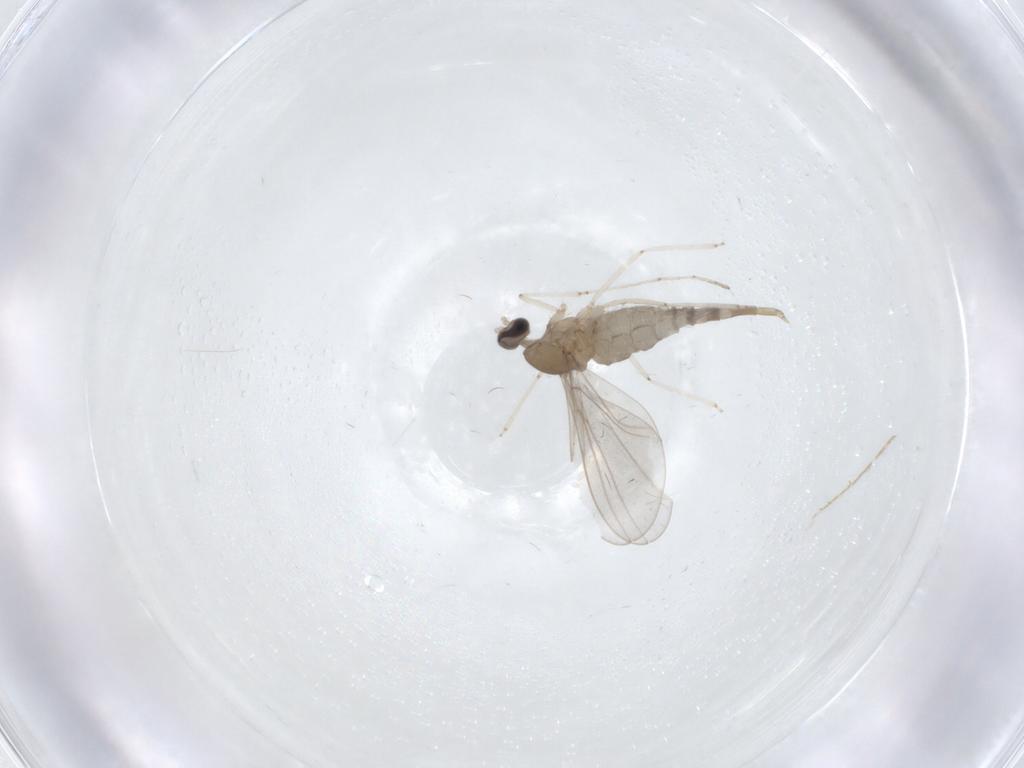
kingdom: Animalia
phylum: Arthropoda
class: Insecta
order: Diptera
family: Cecidomyiidae
